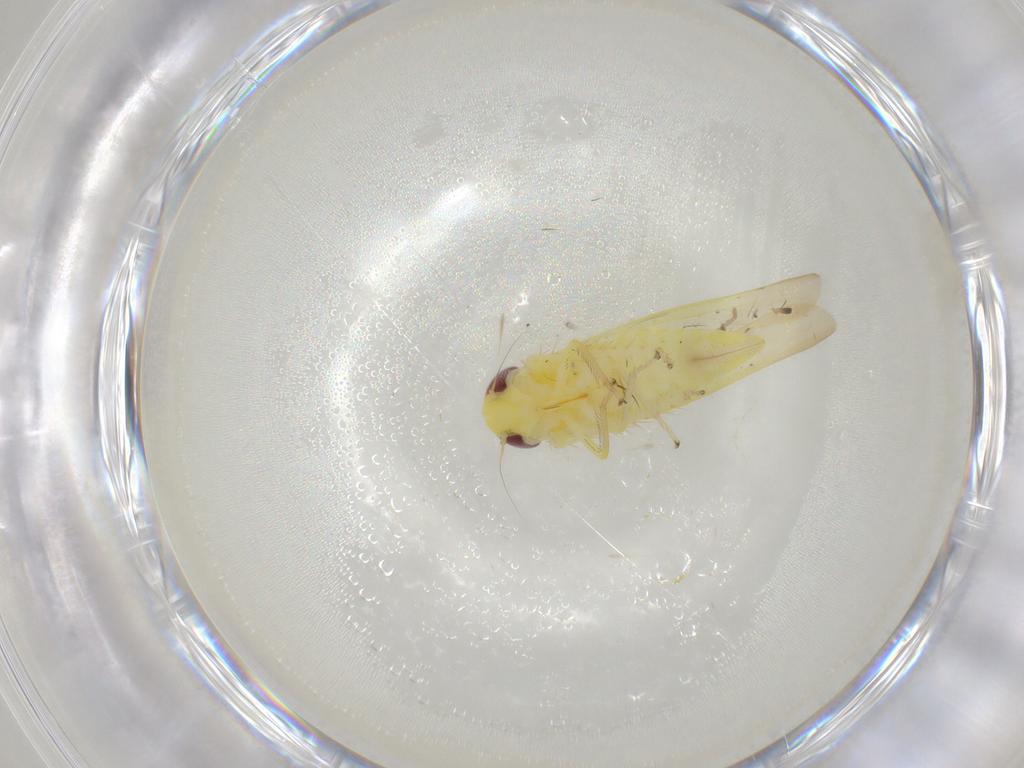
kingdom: Animalia
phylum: Arthropoda
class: Insecta
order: Hemiptera
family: Cicadellidae
